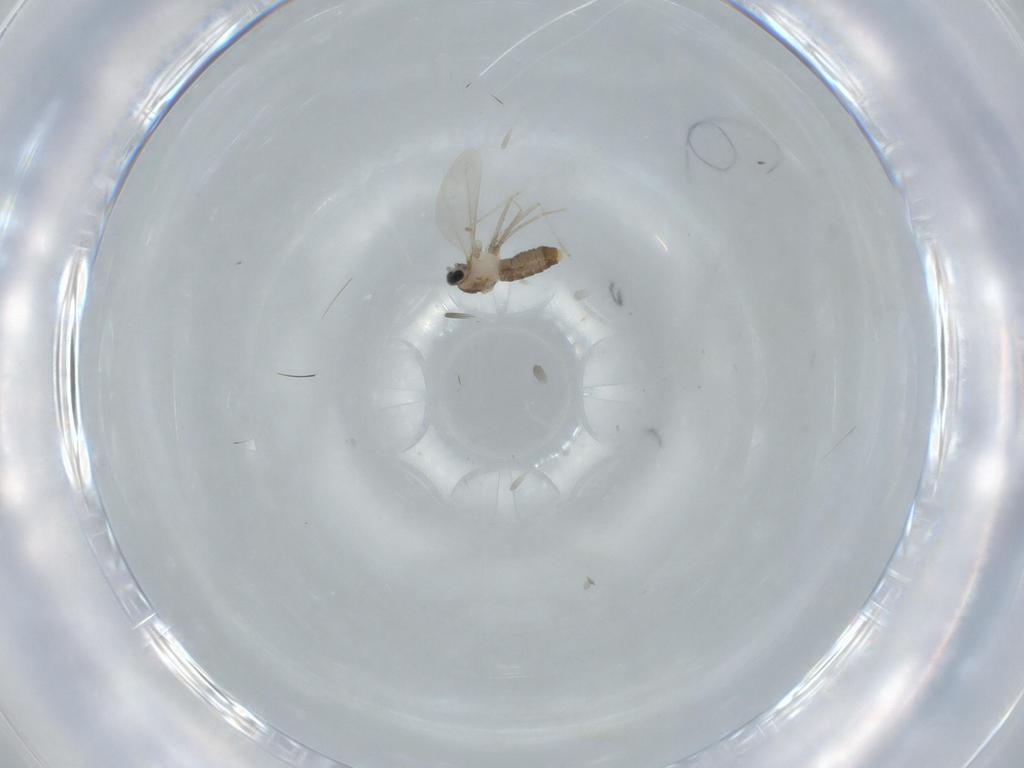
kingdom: Animalia
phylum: Arthropoda
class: Insecta
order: Diptera
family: Cecidomyiidae
